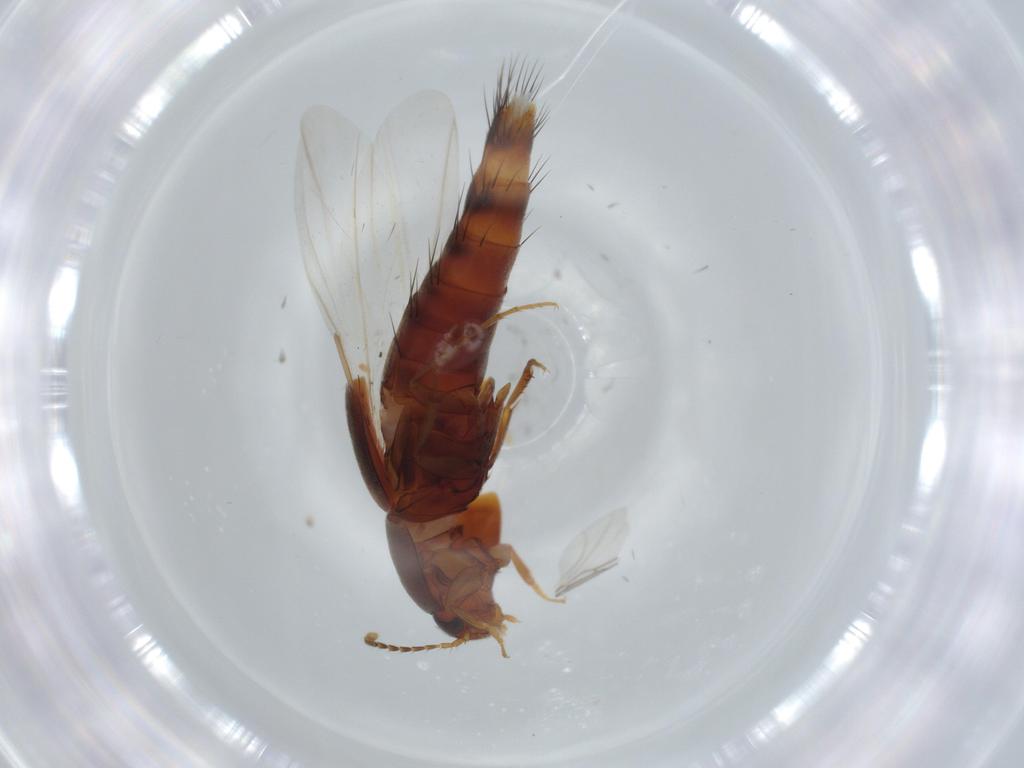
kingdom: Animalia
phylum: Arthropoda
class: Insecta
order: Coleoptera
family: Staphylinidae
